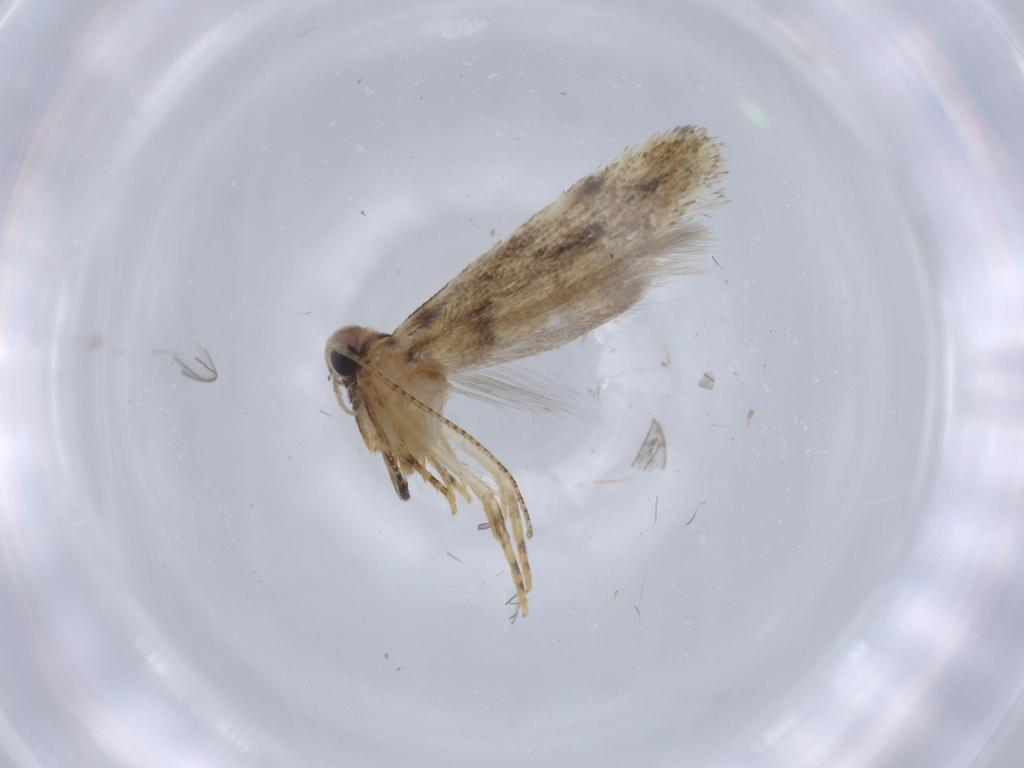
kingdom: Animalia
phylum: Arthropoda
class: Insecta
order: Lepidoptera
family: Gelechiidae
